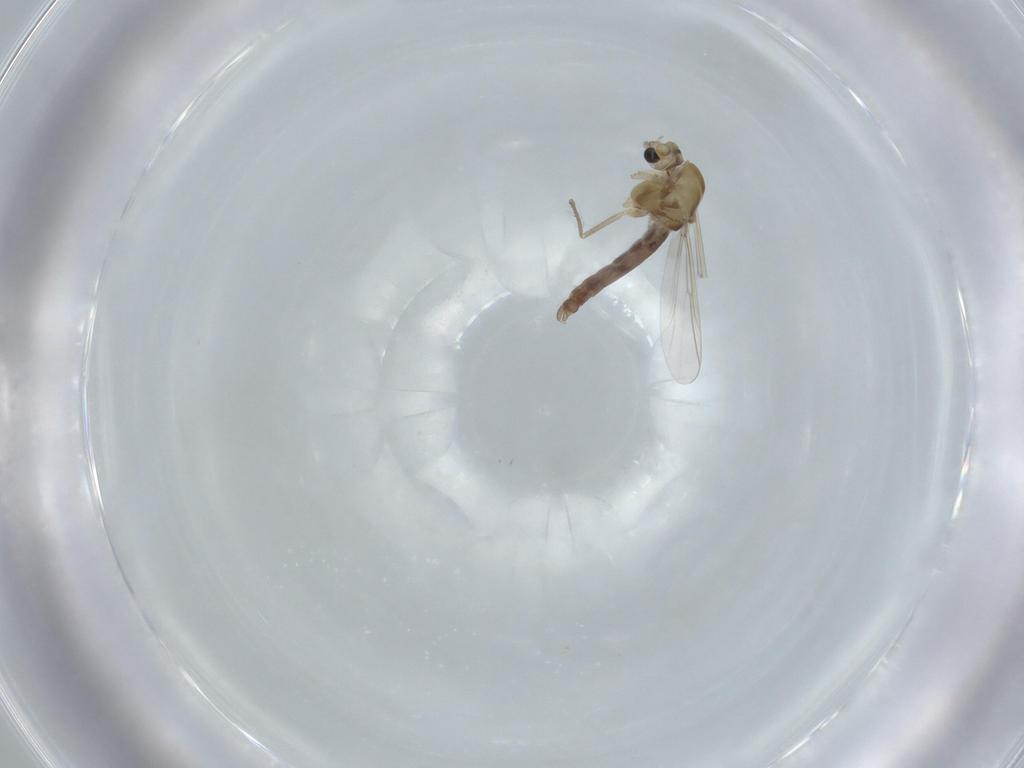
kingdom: Animalia
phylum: Arthropoda
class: Insecta
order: Diptera
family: Chironomidae
